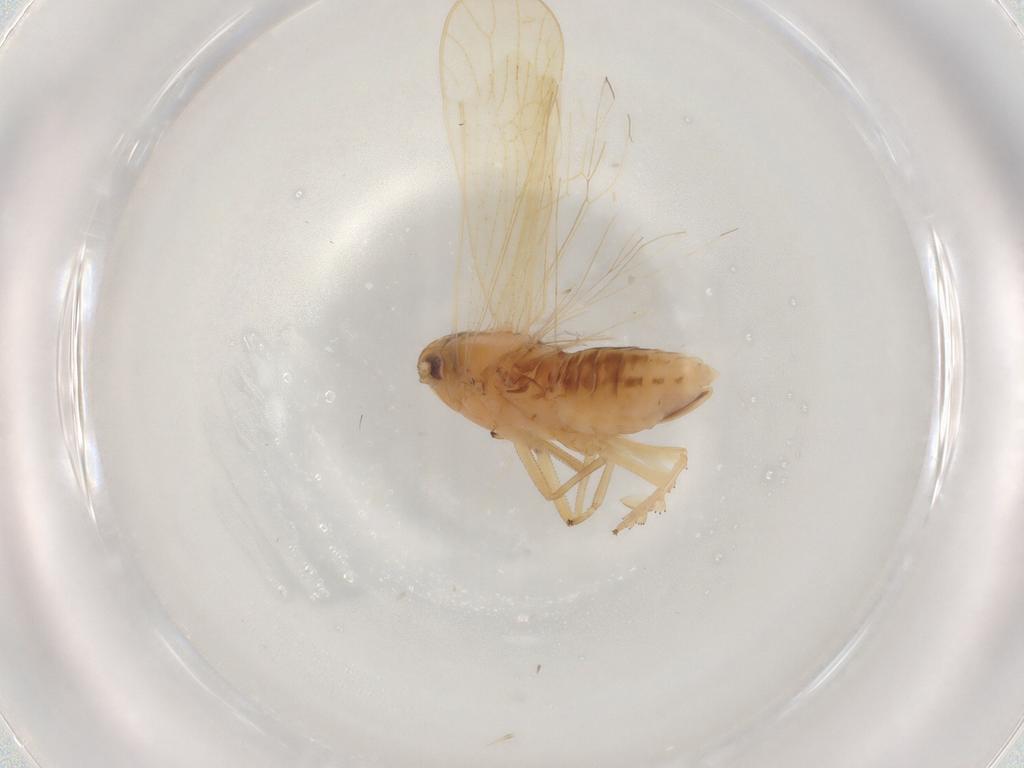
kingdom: Animalia
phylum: Arthropoda
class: Insecta
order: Hemiptera
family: Delphacidae
